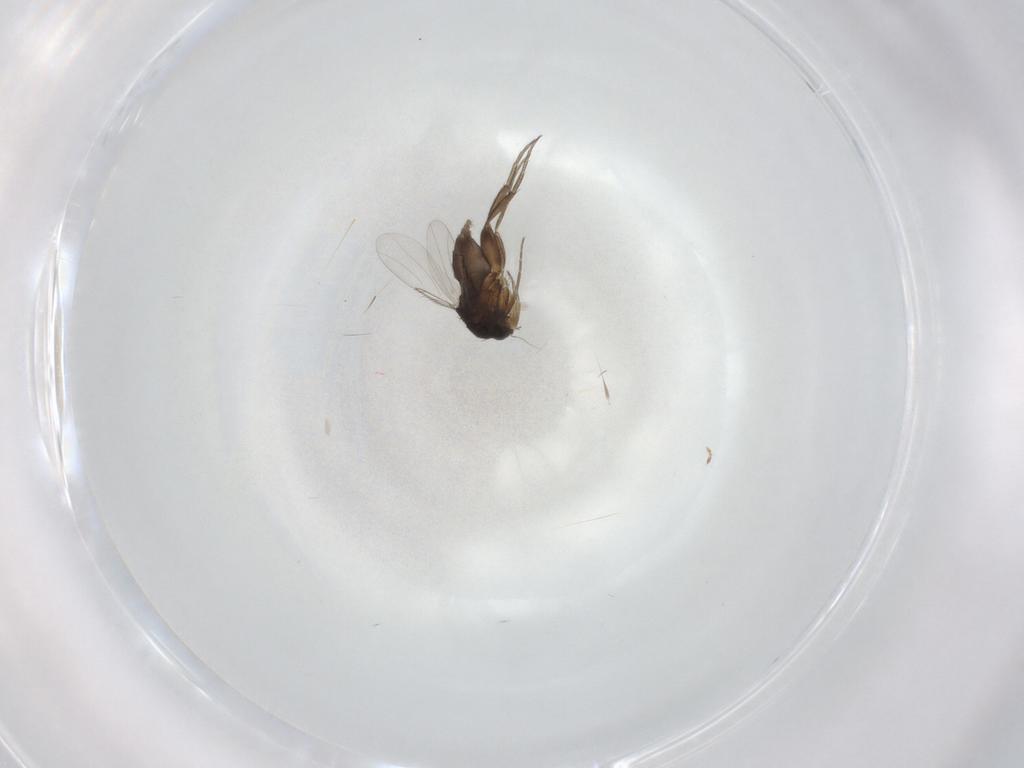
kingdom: Animalia
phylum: Arthropoda
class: Insecta
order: Diptera
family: Phoridae
